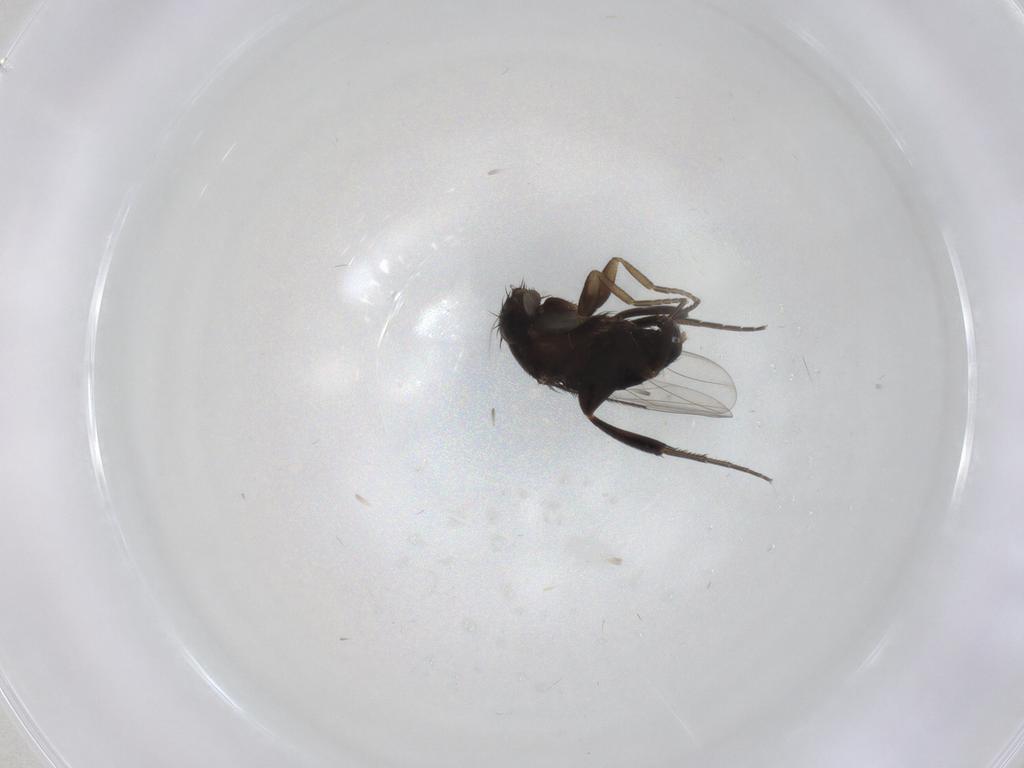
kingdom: Animalia
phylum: Arthropoda
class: Insecta
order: Diptera
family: Phoridae
